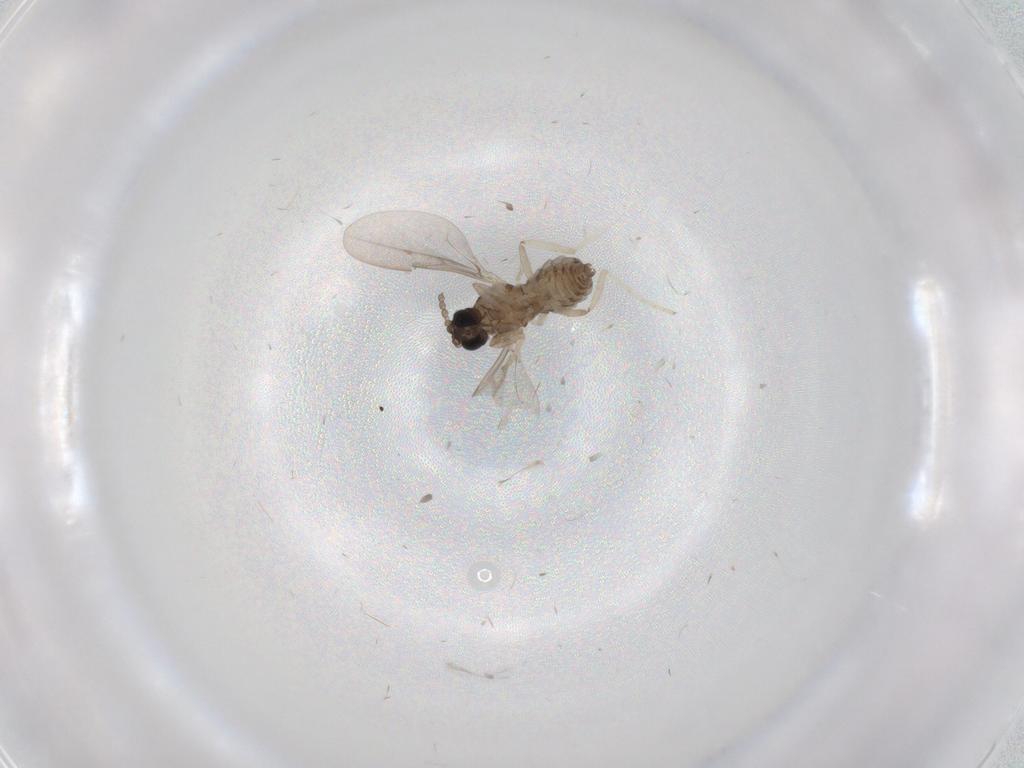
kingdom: Animalia
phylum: Arthropoda
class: Insecta
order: Diptera
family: Cecidomyiidae
